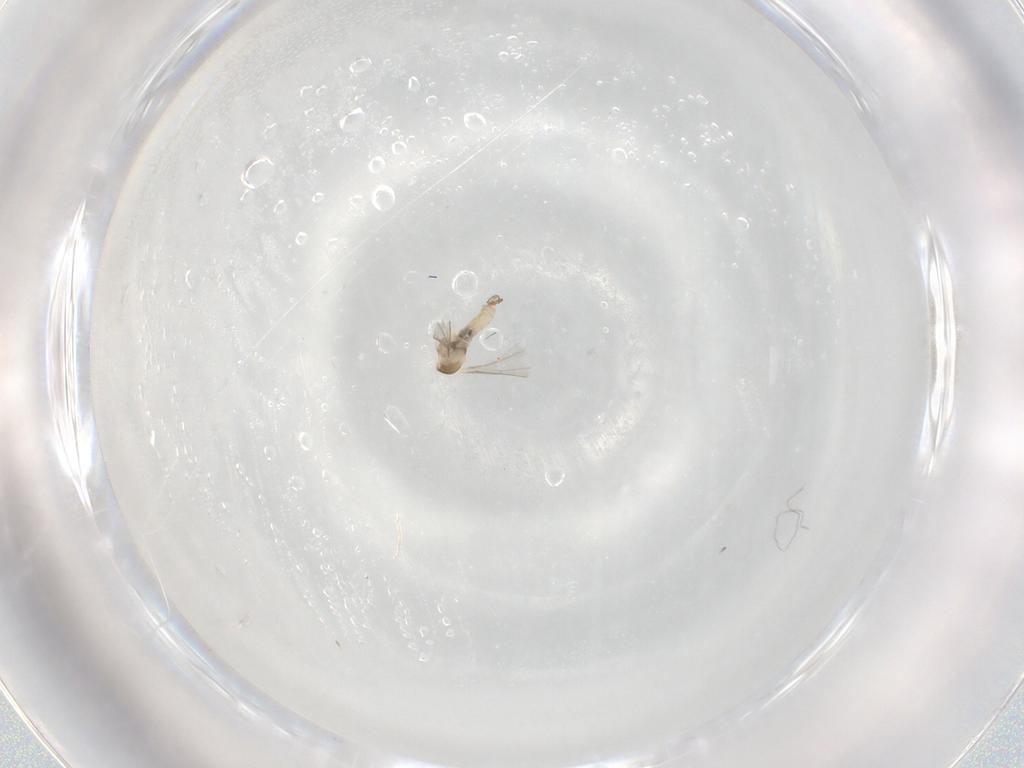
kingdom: Animalia
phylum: Arthropoda
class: Insecta
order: Diptera
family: Cecidomyiidae
